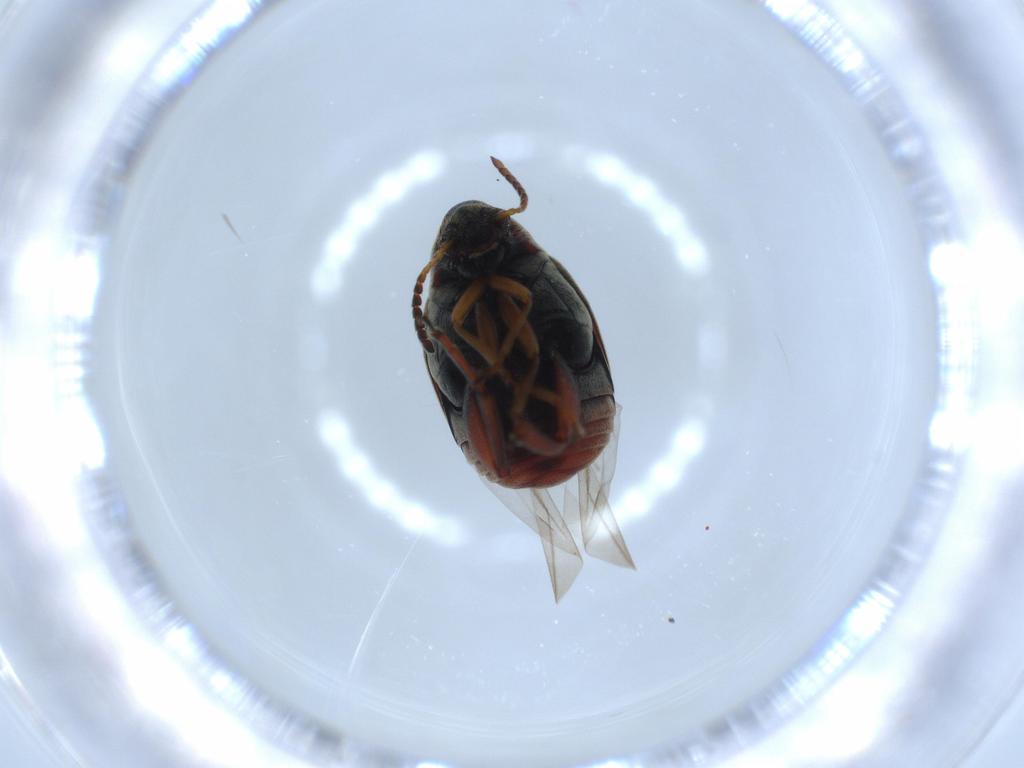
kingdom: Animalia
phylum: Arthropoda
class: Insecta
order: Coleoptera
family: Chrysomelidae
